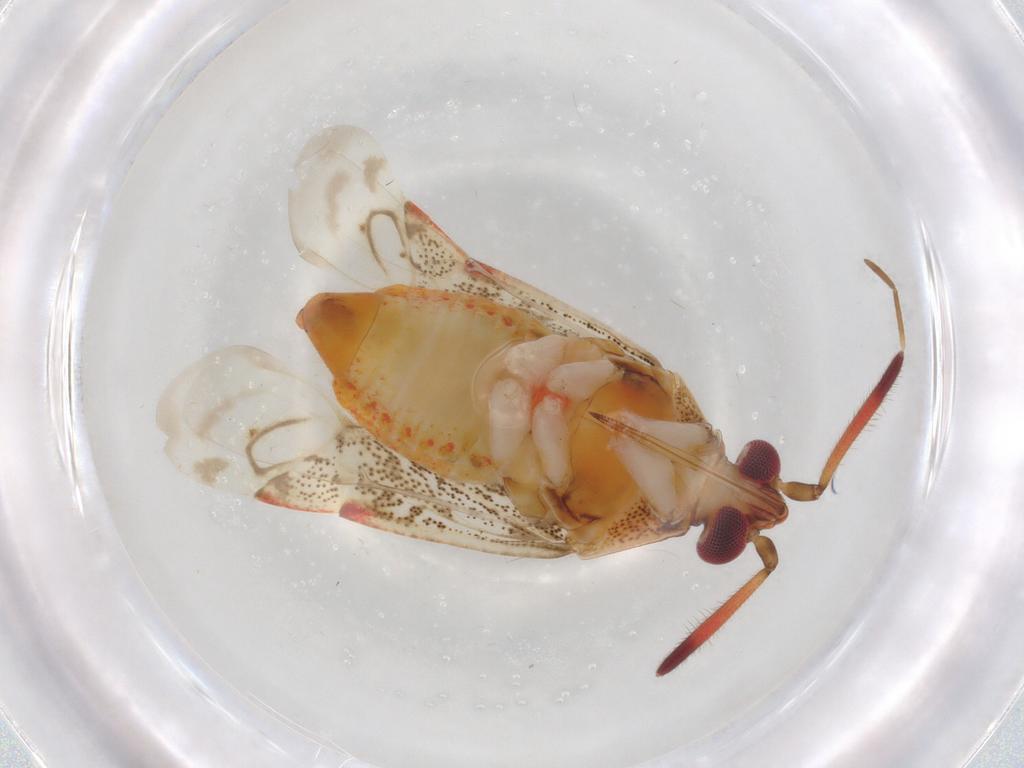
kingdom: Animalia
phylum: Arthropoda
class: Insecta
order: Hemiptera
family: Miridae
